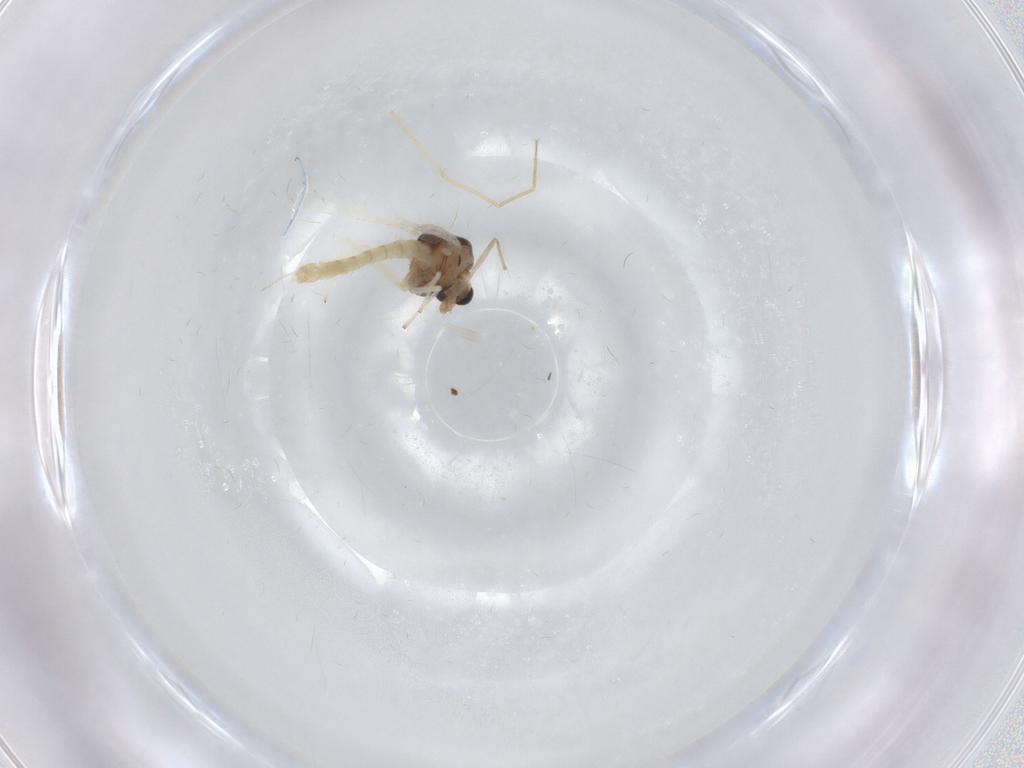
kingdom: Animalia
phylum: Arthropoda
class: Insecta
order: Diptera
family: Chironomidae
